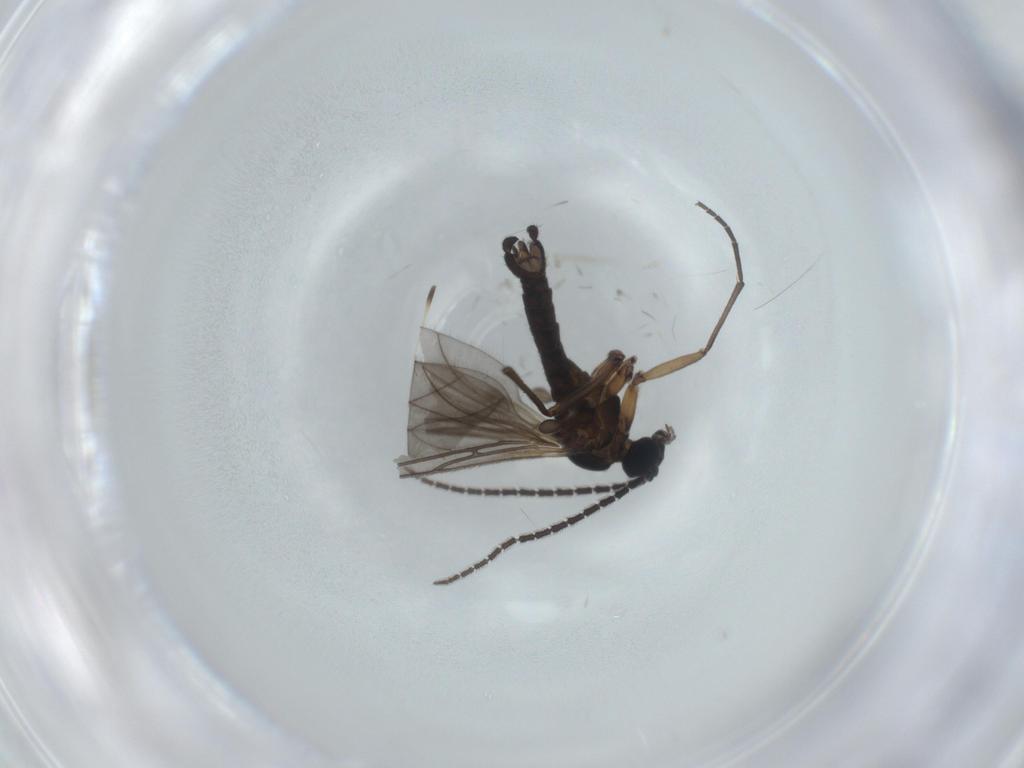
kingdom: Animalia
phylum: Arthropoda
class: Insecta
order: Diptera
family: Sciaridae
